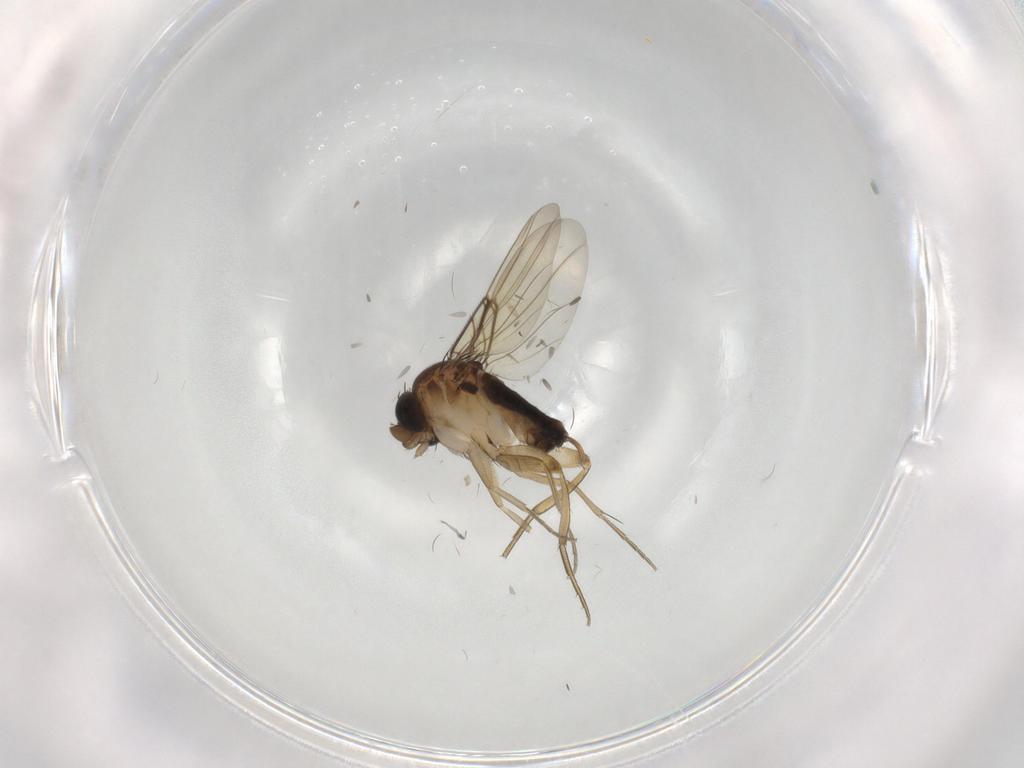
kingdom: Animalia
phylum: Arthropoda
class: Insecta
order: Diptera
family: Phoridae
